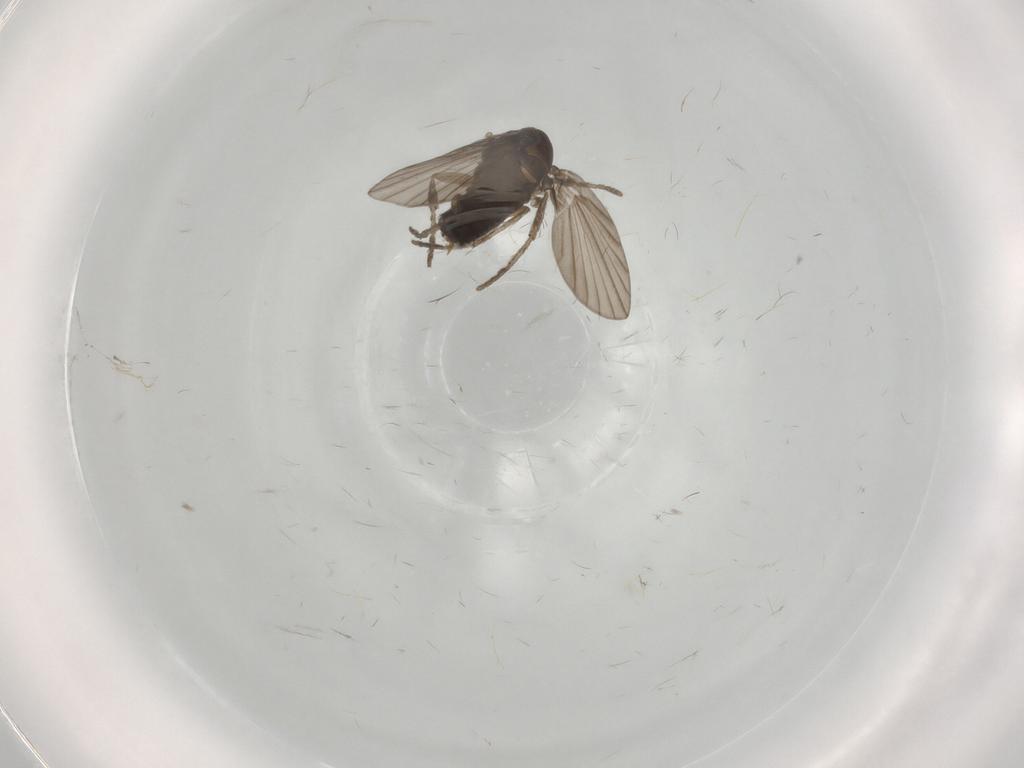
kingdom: Animalia
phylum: Arthropoda
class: Insecta
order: Diptera
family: Psychodidae
